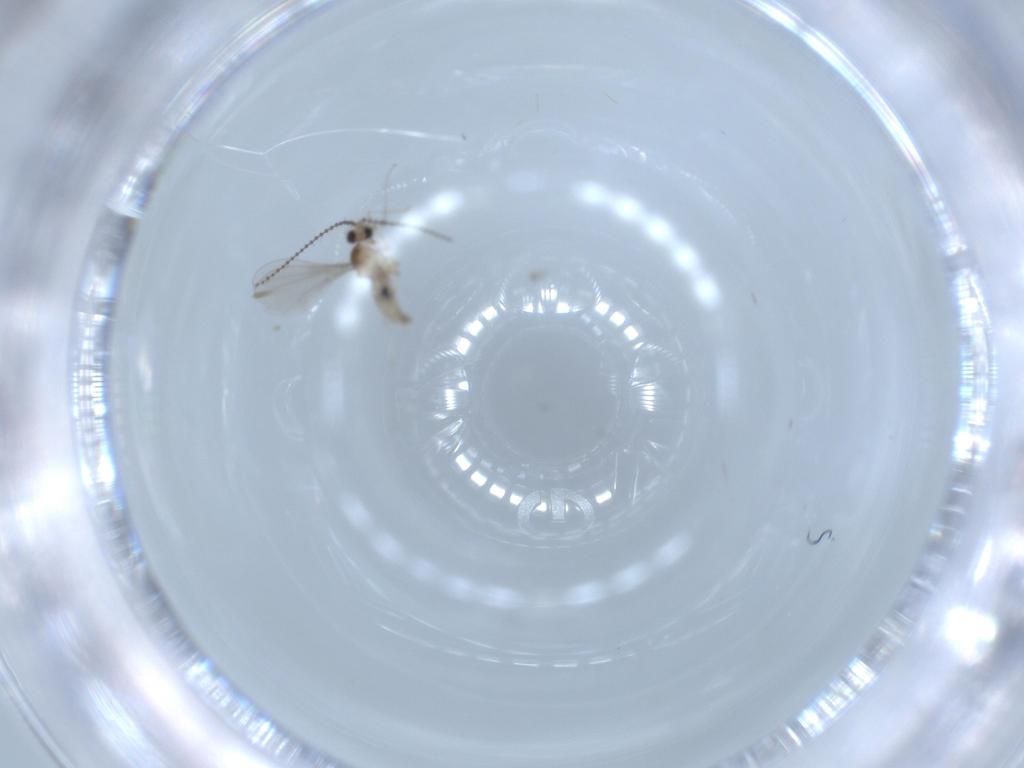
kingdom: Animalia
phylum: Arthropoda
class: Insecta
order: Diptera
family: Cecidomyiidae
